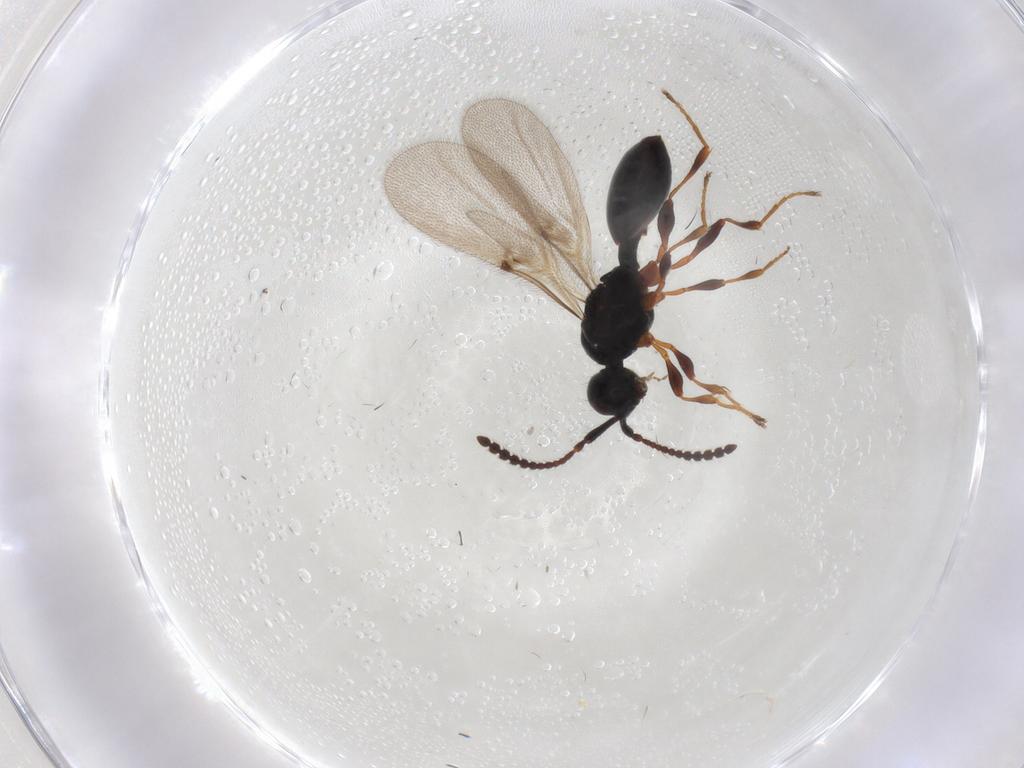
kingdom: Animalia
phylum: Arthropoda
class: Insecta
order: Hymenoptera
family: Diapriidae
